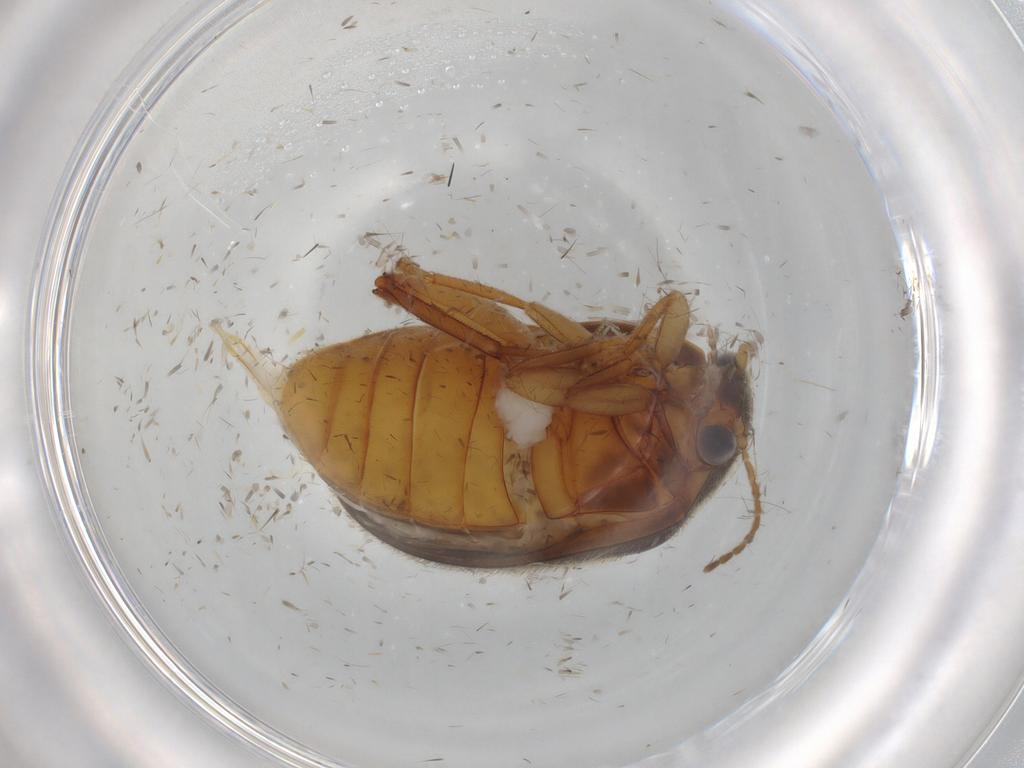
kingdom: Animalia
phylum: Arthropoda
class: Insecta
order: Coleoptera
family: Scirtidae
